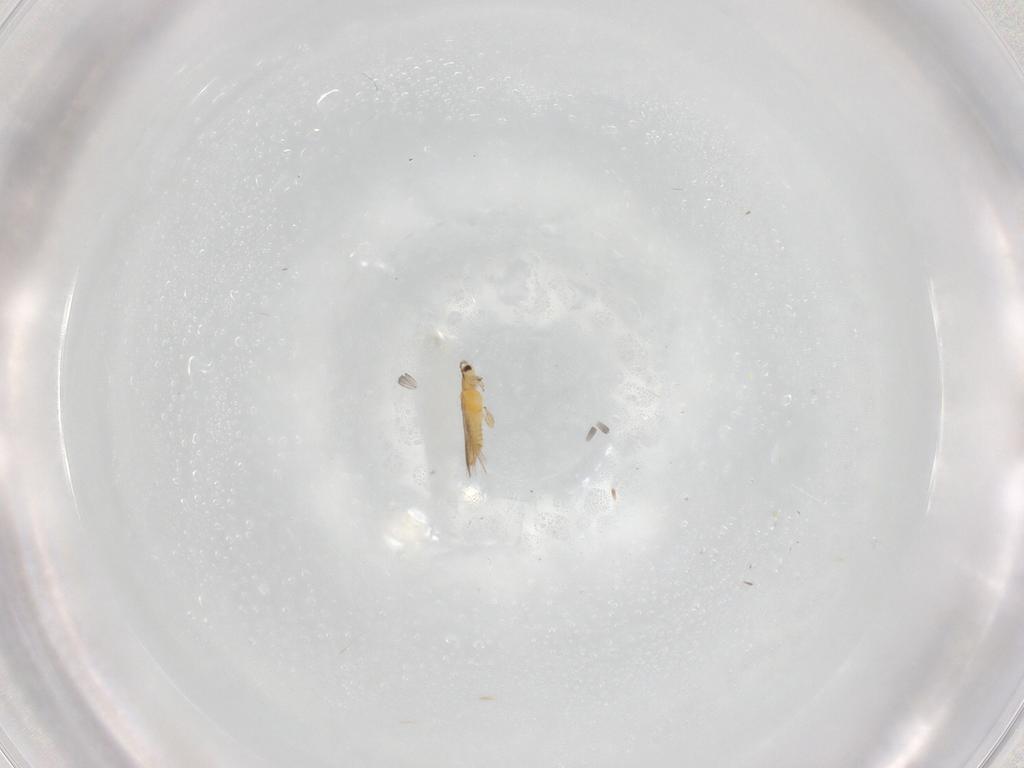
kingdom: Animalia
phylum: Arthropoda
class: Insecta
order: Thysanoptera
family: Thripidae
